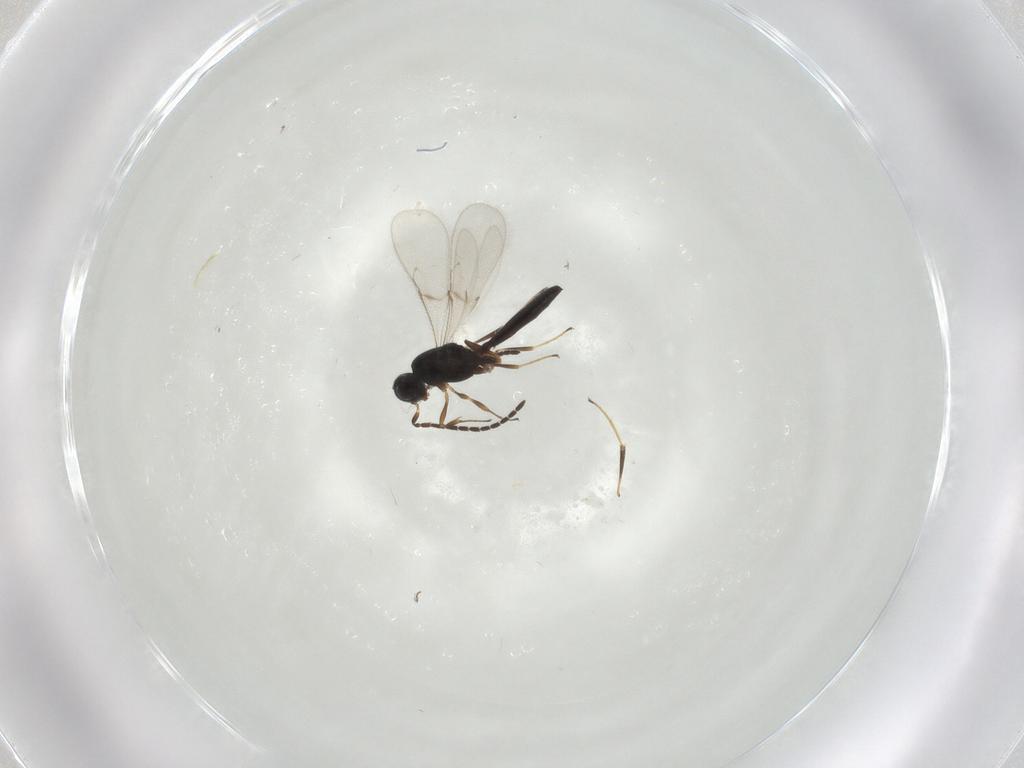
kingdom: Animalia
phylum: Arthropoda
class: Insecta
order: Hymenoptera
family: Scelionidae
